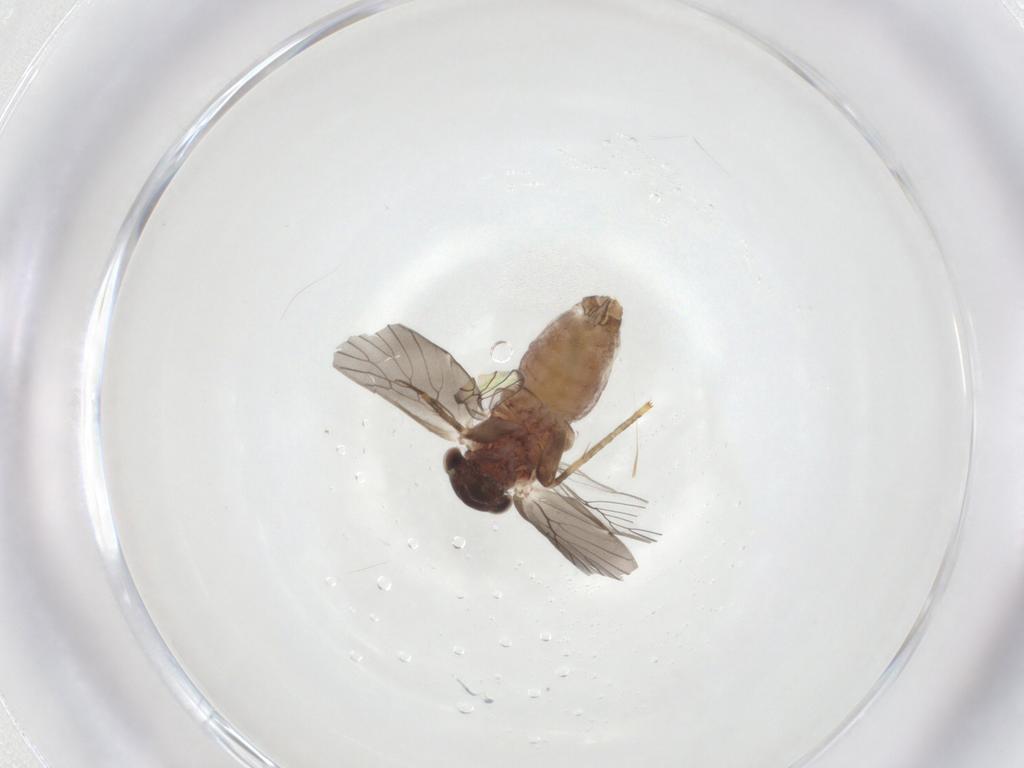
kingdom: Animalia
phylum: Arthropoda
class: Insecta
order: Psocodea
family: Lepidopsocidae
